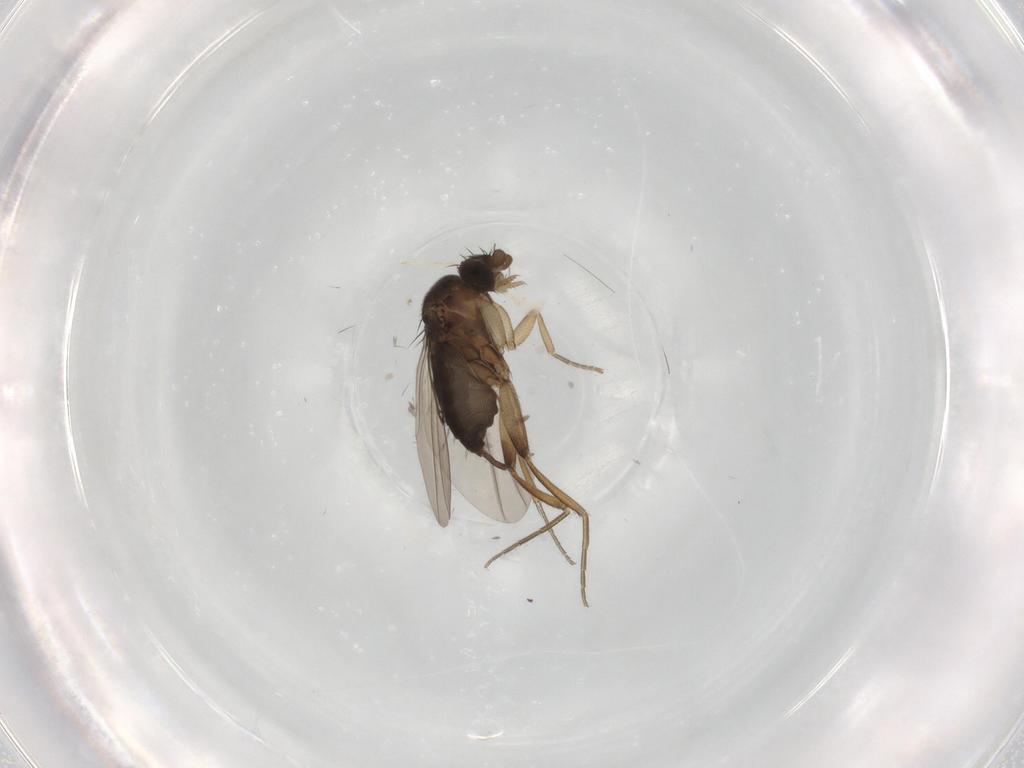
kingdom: Animalia
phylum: Arthropoda
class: Insecta
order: Diptera
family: Phoridae
